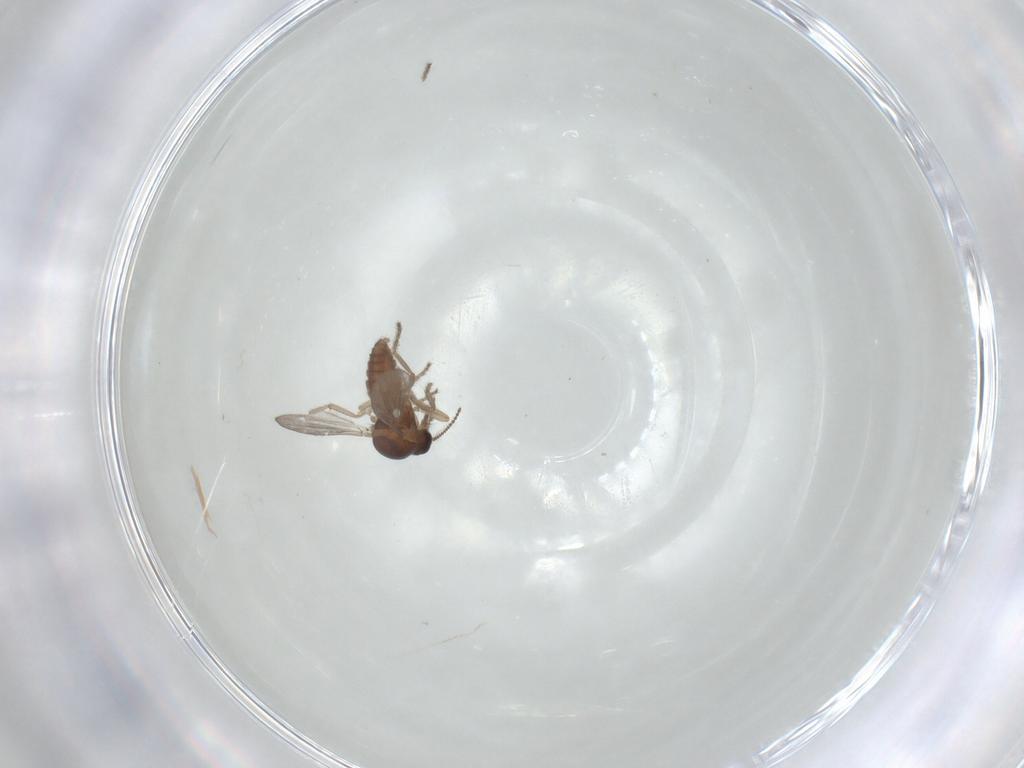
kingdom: Animalia
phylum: Arthropoda
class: Insecta
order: Diptera
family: Ceratopogonidae
